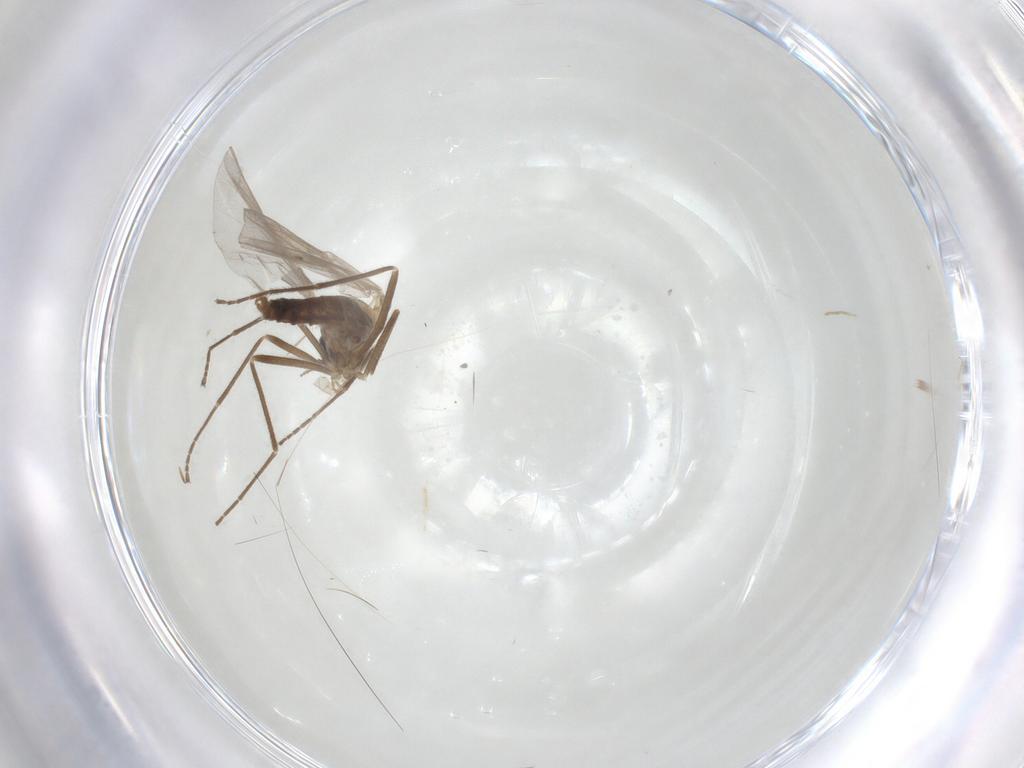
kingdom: Animalia
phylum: Arthropoda
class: Insecta
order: Diptera
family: Cecidomyiidae
